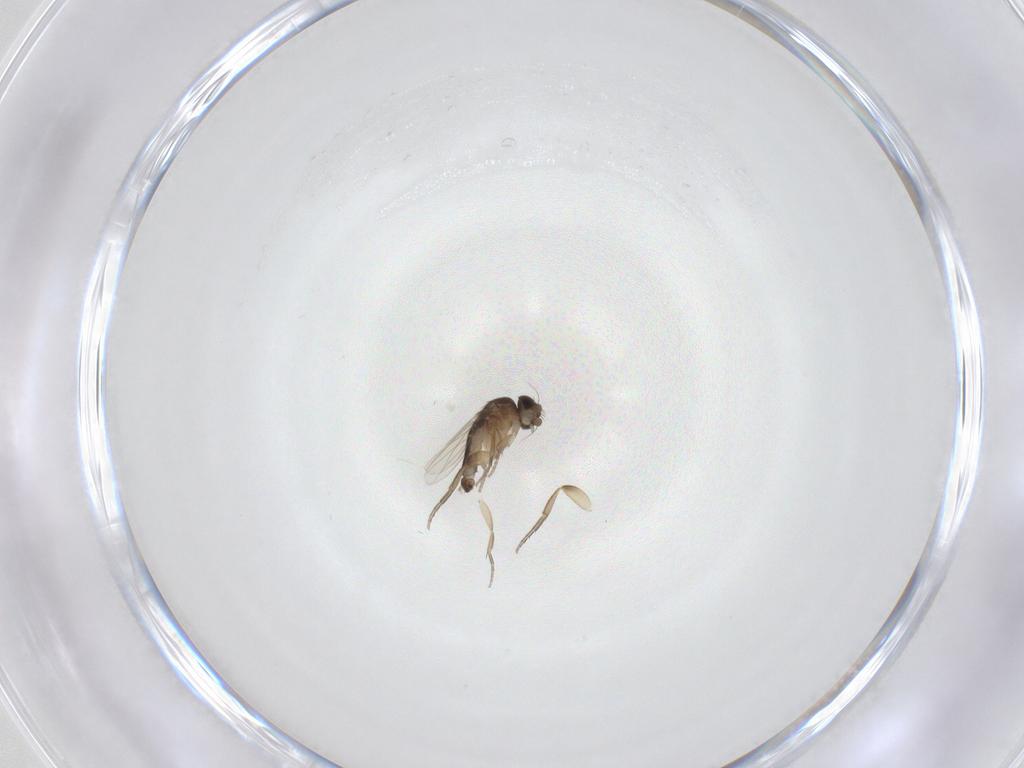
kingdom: Animalia
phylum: Arthropoda
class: Insecta
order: Diptera
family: Phoridae
